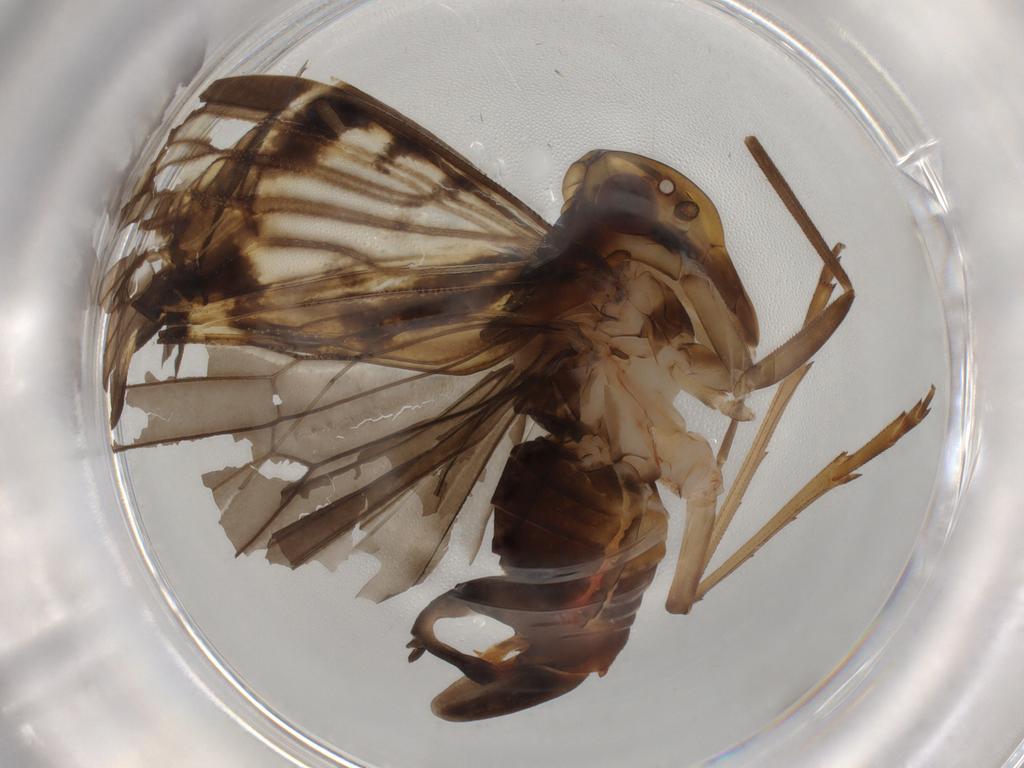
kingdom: Animalia
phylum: Arthropoda
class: Insecta
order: Hemiptera
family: Cixiidae
